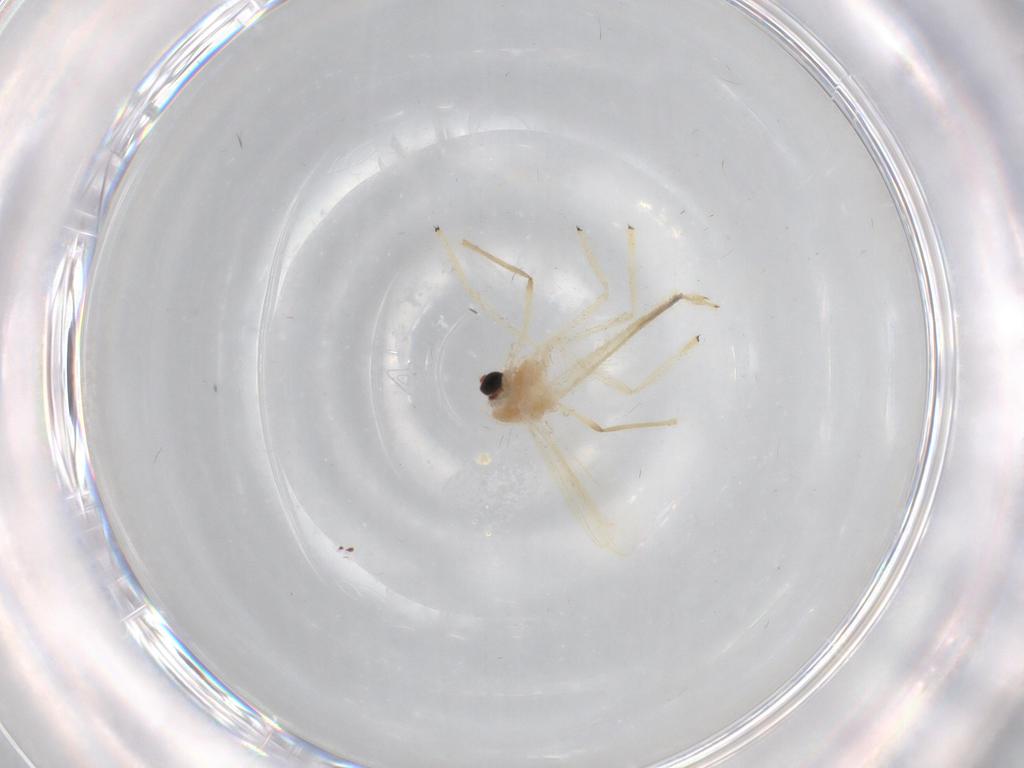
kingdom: Animalia
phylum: Arthropoda
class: Insecta
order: Diptera
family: Chironomidae
